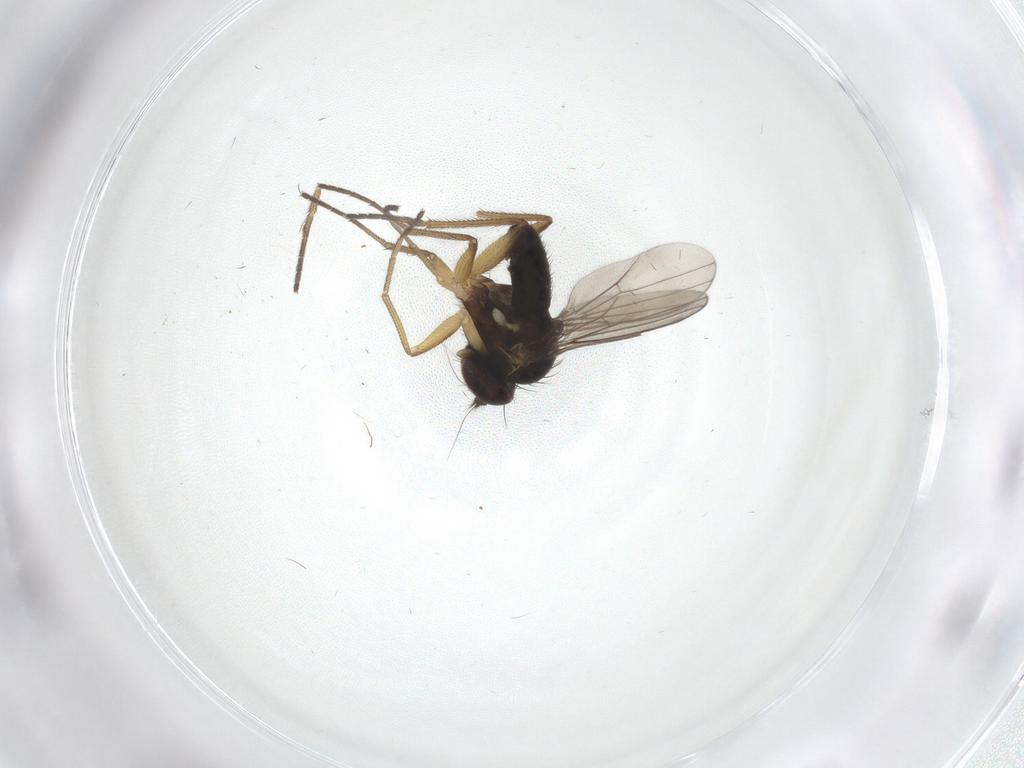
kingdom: Animalia
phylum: Arthropoda
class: Insecta
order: Diptera
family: Dolichopodidae
